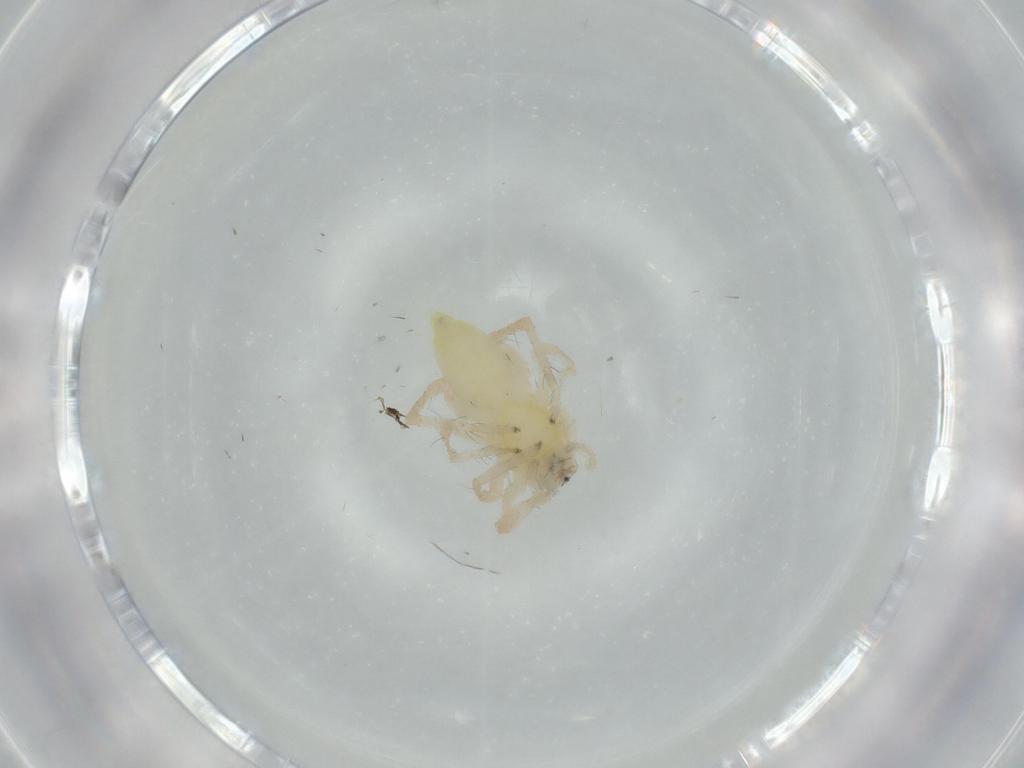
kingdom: Animalia
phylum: Arthropoda
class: Arachnida
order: Araneae
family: Anyphaenidae
